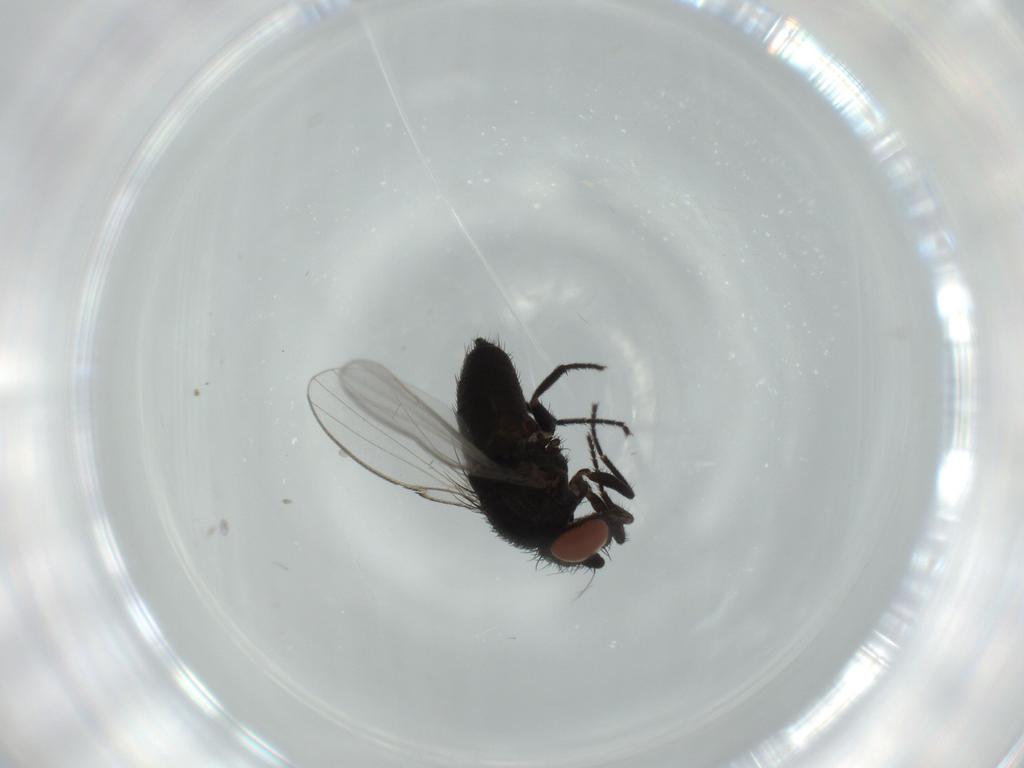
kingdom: Animalia
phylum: Arthropoda
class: Insecta
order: Diptera
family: Milichiidae
